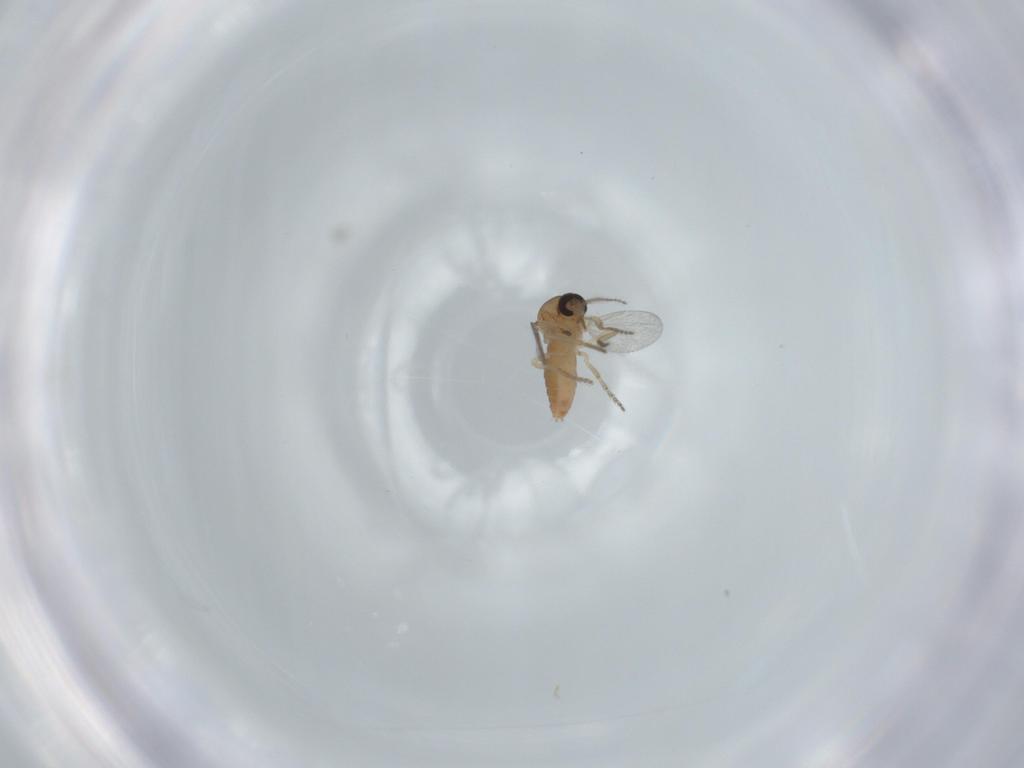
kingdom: Animalia
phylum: Arthropoda
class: Insecta
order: Diptera
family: Ceratopogonidae
